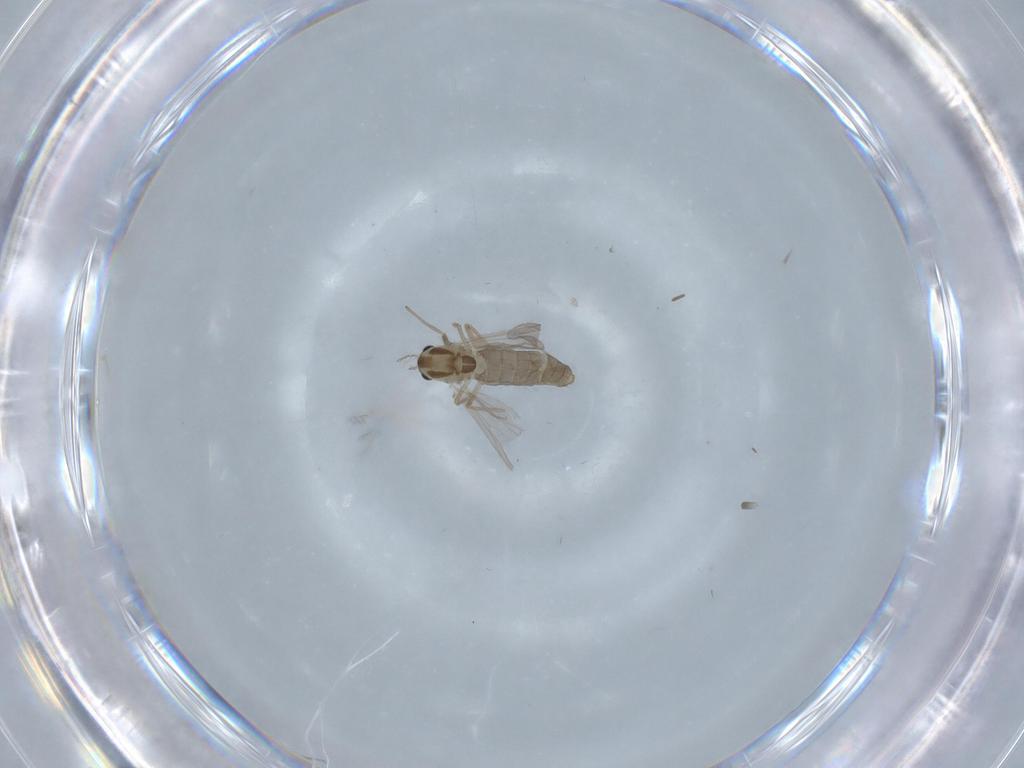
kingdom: Animalia
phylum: Arthropoda
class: Insecta
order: Diptera
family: Chironomidae
